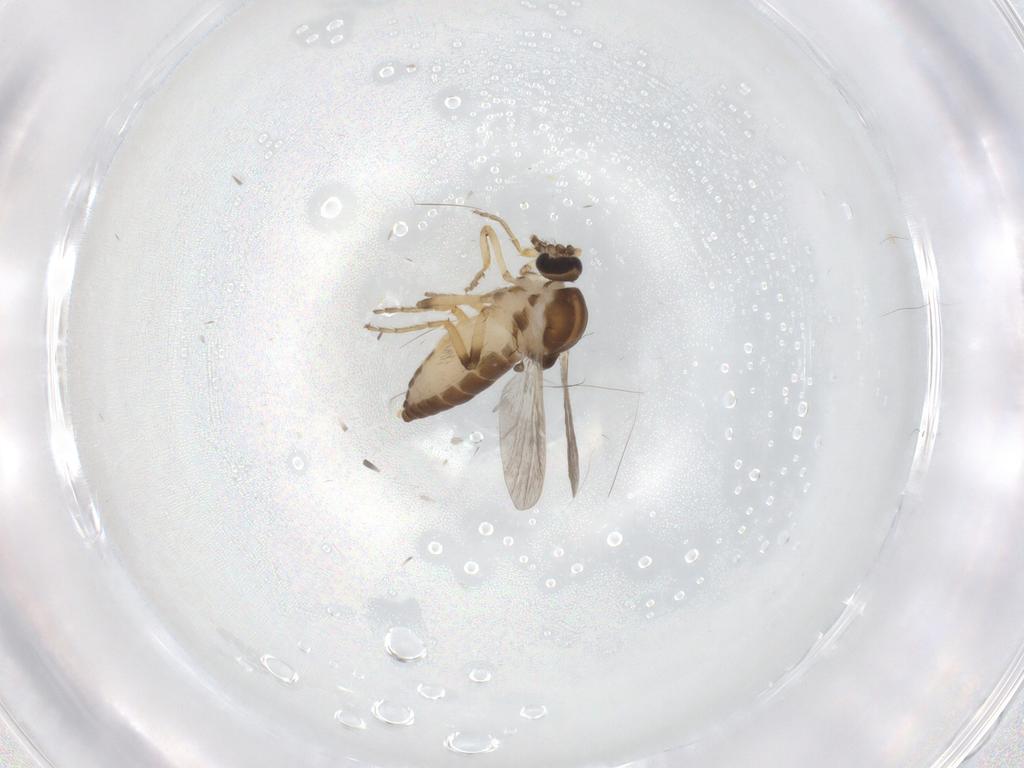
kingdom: Animalia
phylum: Arthropoda
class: Insecta
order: Diptera
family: Ceratopogonidae
